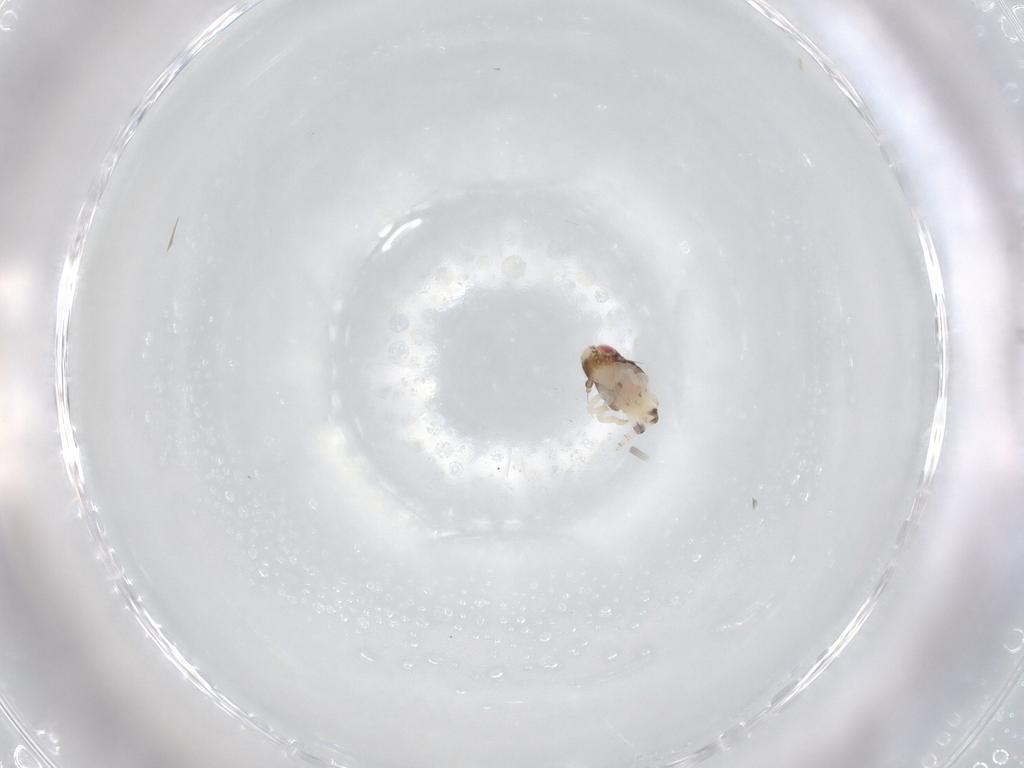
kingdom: Animalia
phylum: Arthropoda
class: Insecta
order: Hemiptera
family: Nogodinidae
